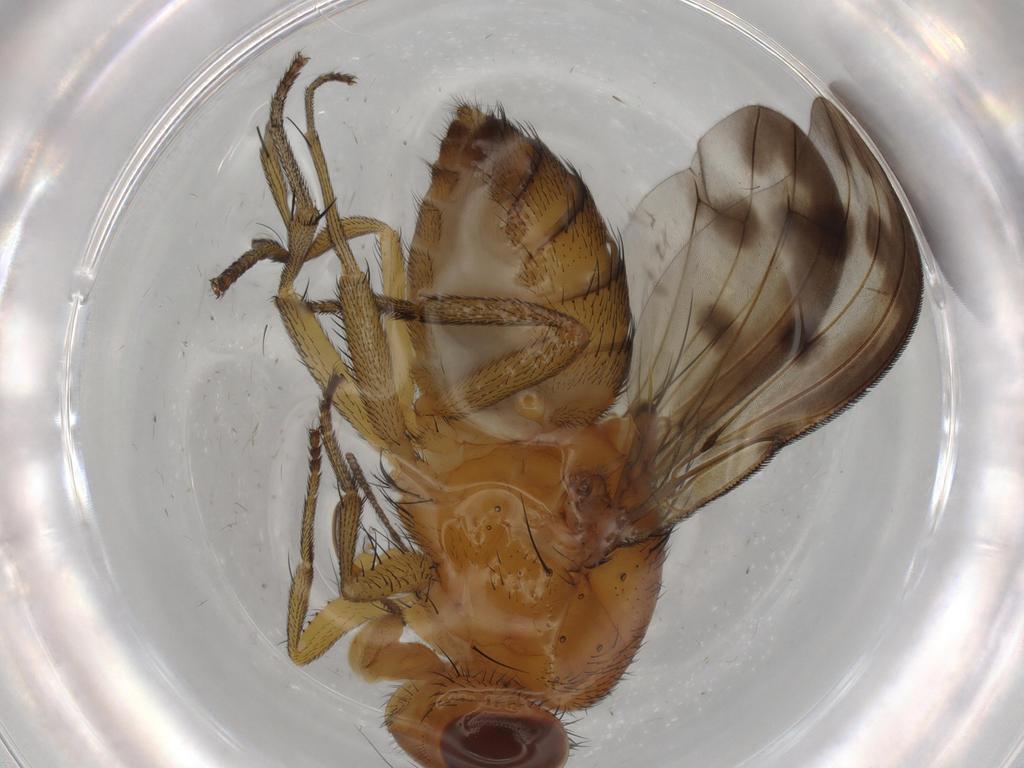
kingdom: Animalia
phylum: Arthropoda
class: Insecta
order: Diptera
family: Phoridae
